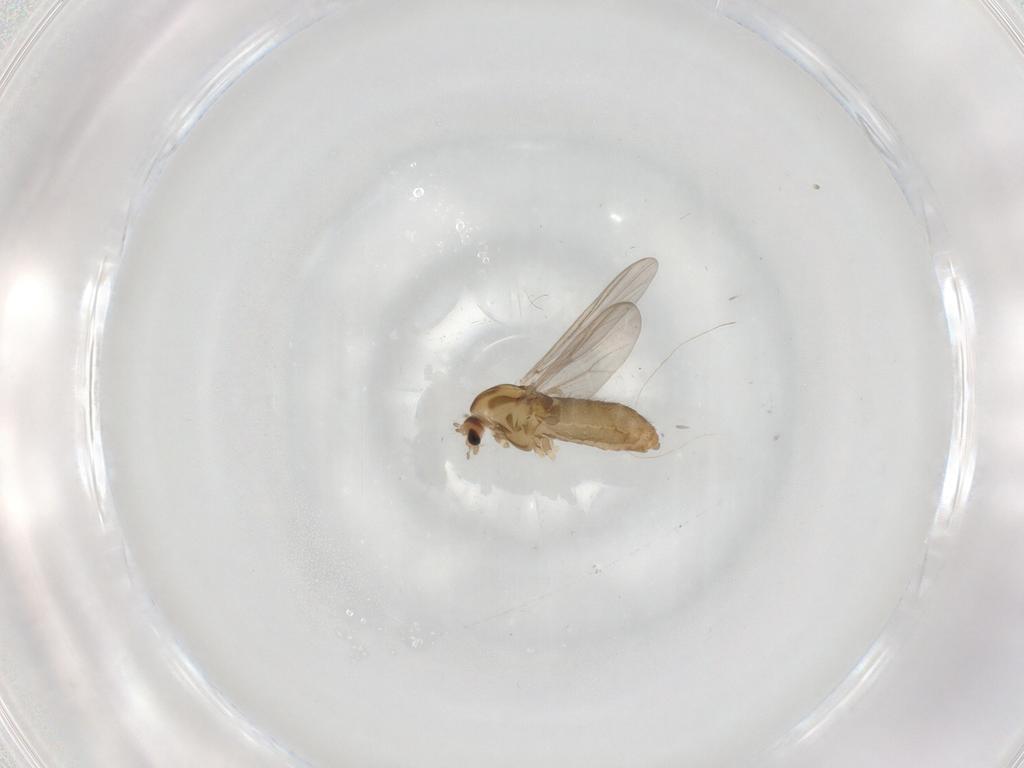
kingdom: Animalia
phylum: Arthropoda
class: Insecta
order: Diptera
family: Chironomidae
